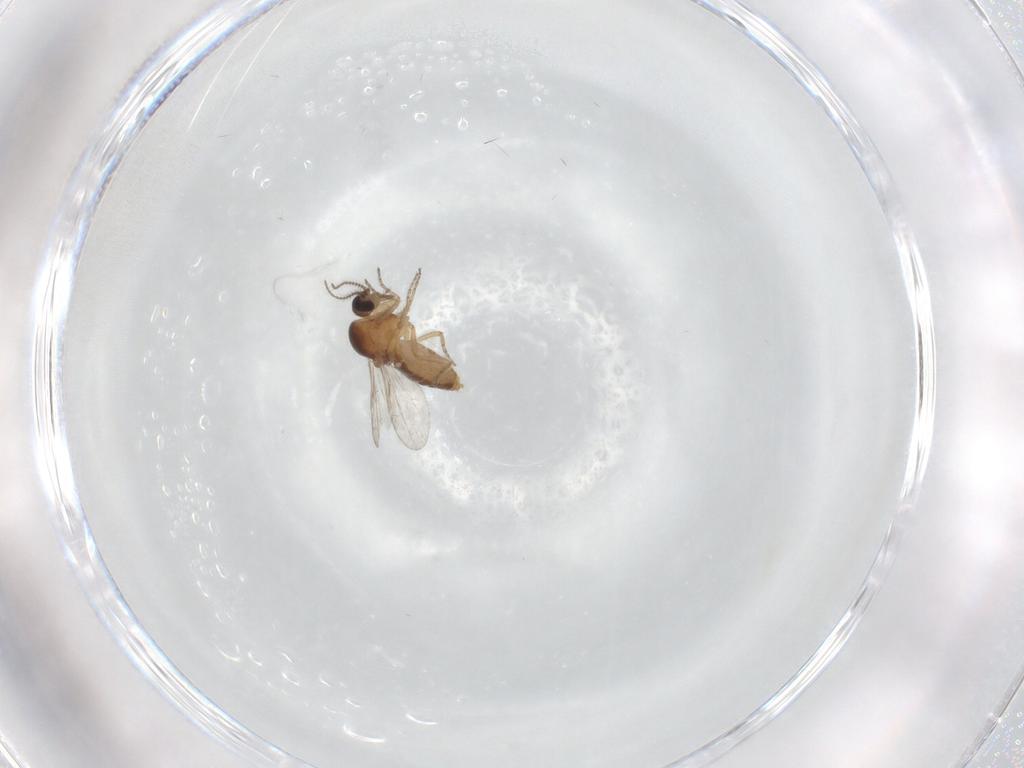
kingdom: Animalia
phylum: Arthropoda
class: Insecta
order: Diptera
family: Ceratopogonidae
